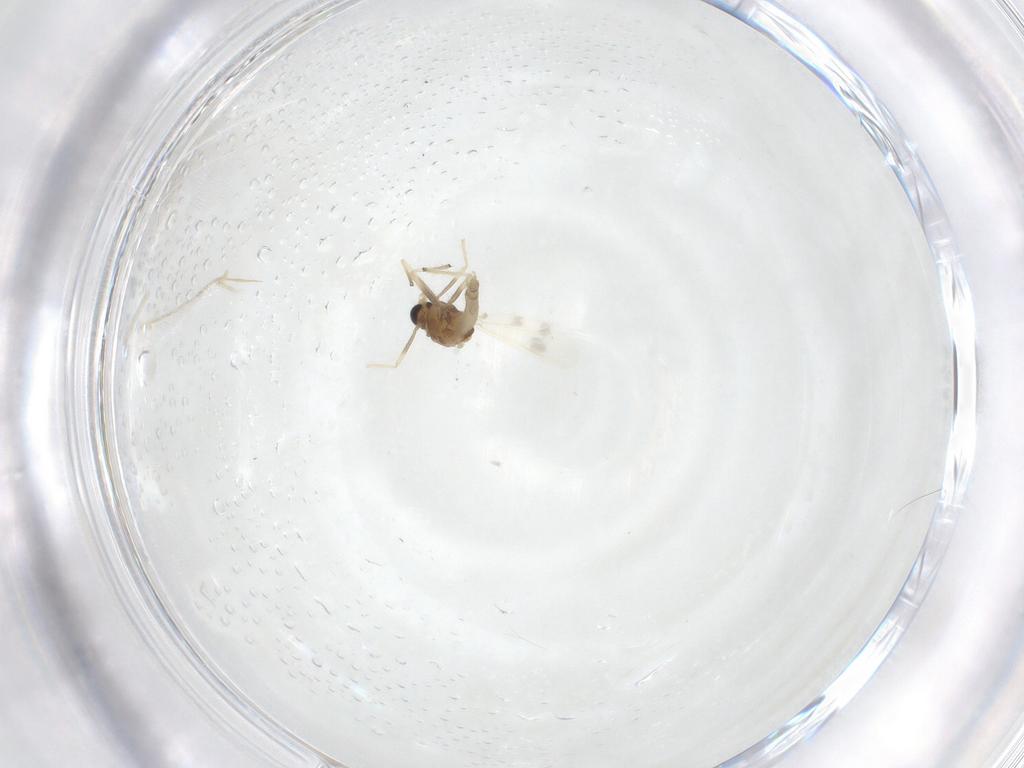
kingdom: Animalia
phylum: Arthropoda
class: Insecta
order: Diptera
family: Chironomidae
